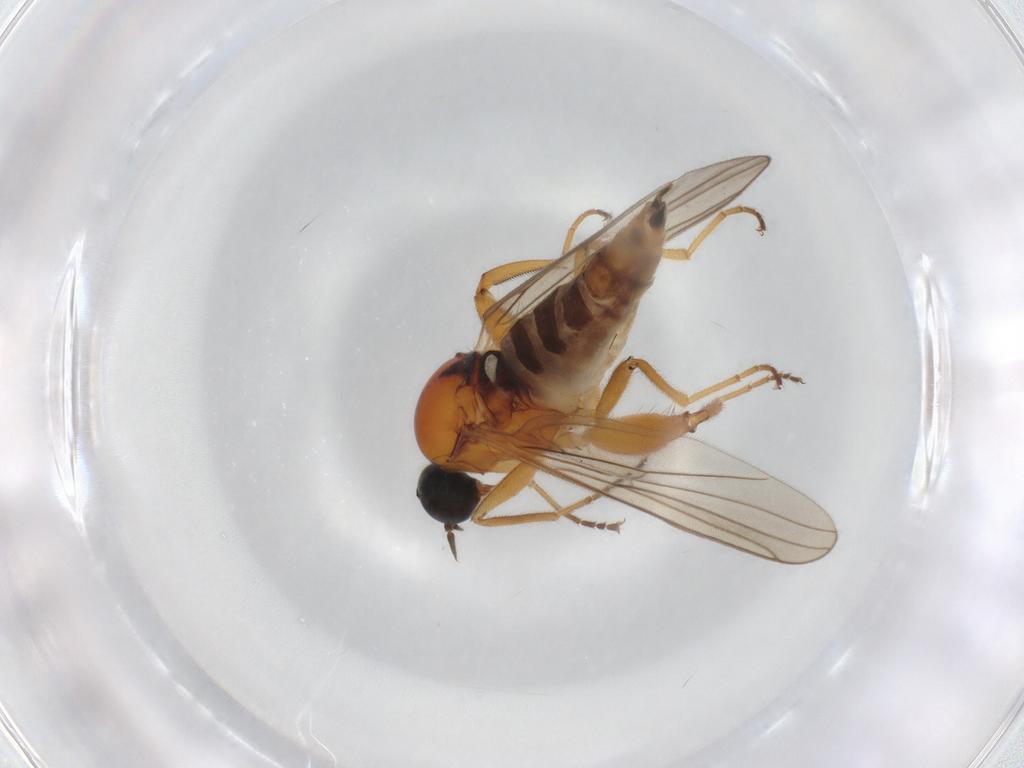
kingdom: Animalia
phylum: Arthropoda
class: Insecta
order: Diptera
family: Hybotidae
